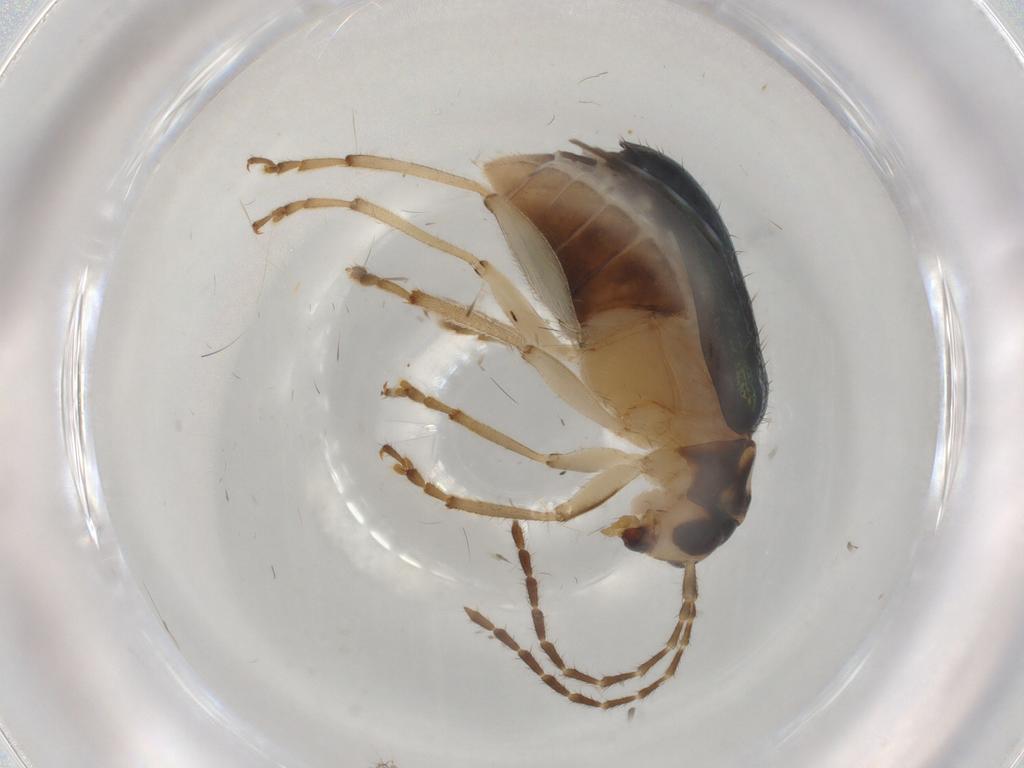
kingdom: Animalia
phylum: Arthropoda
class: Insecta
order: Coleoptera
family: Chrysomelidae
